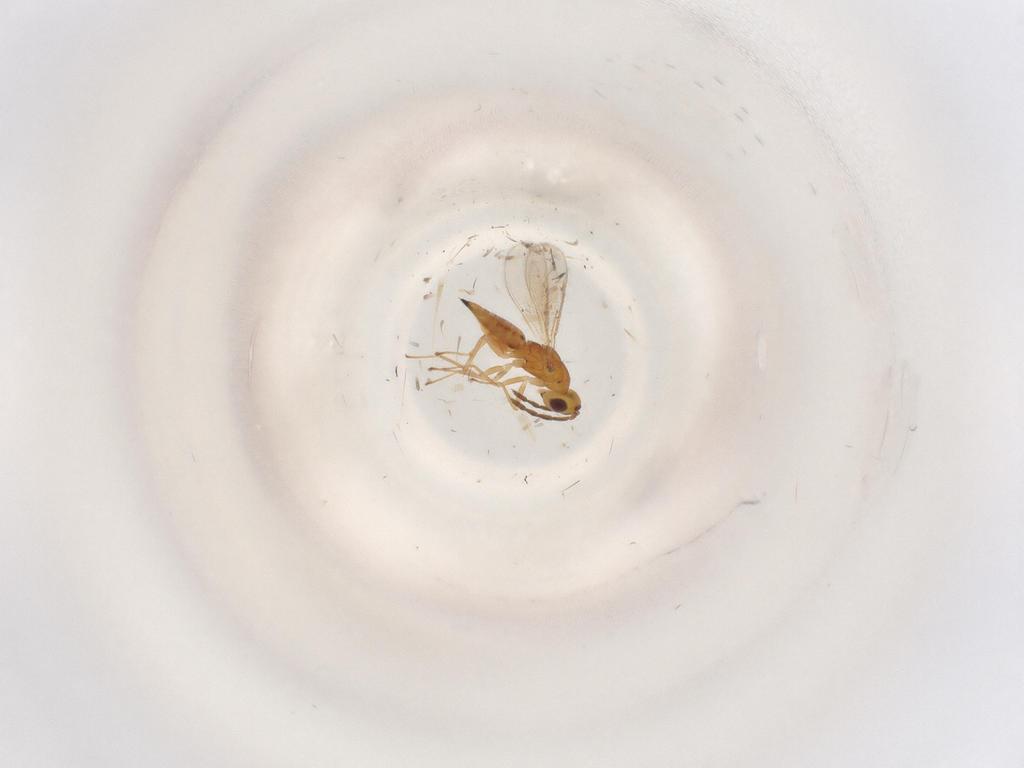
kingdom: Animalia
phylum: Arthropoda
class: Insecta
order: Hymenoptera
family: Eulophidae
